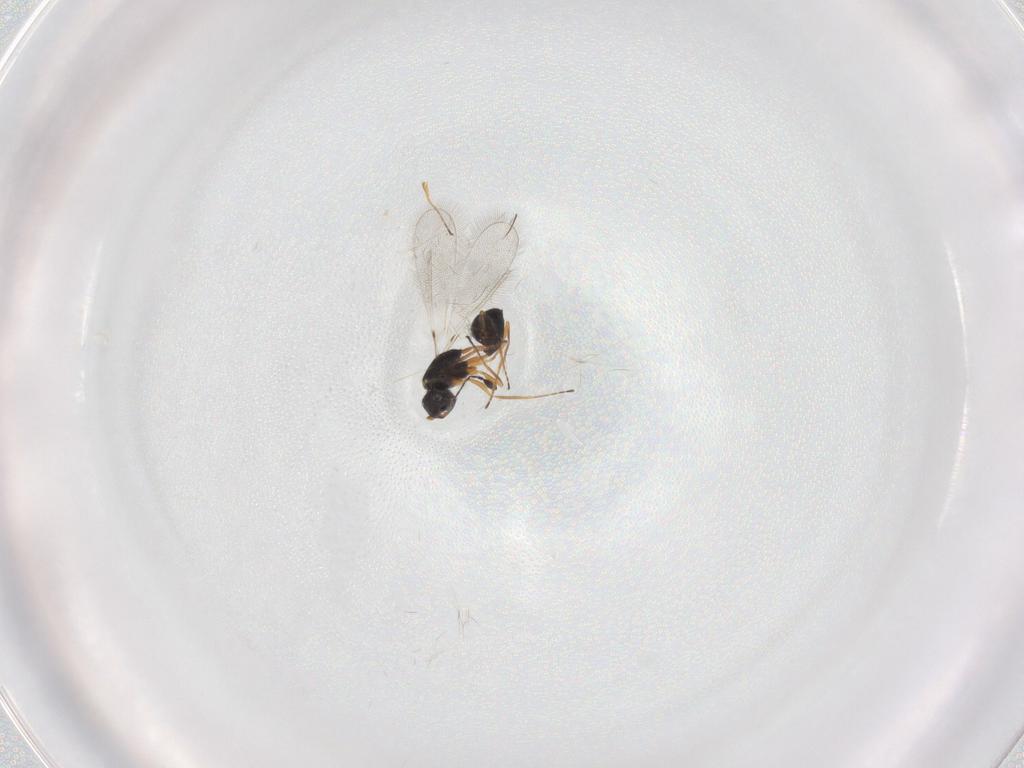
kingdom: Animalia
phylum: Arthropoda
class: Insecta
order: Hymenoptera
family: Mymaridae
